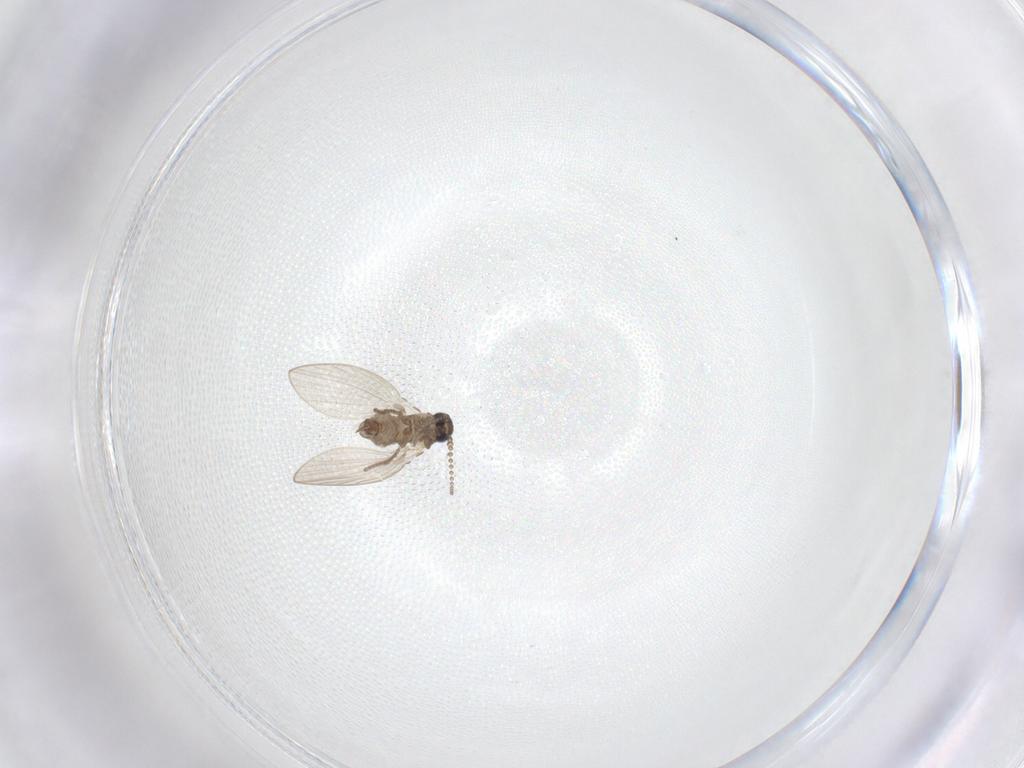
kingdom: Animalia
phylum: Arthropoda
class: Insecta
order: Diptera
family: Psychodidae
